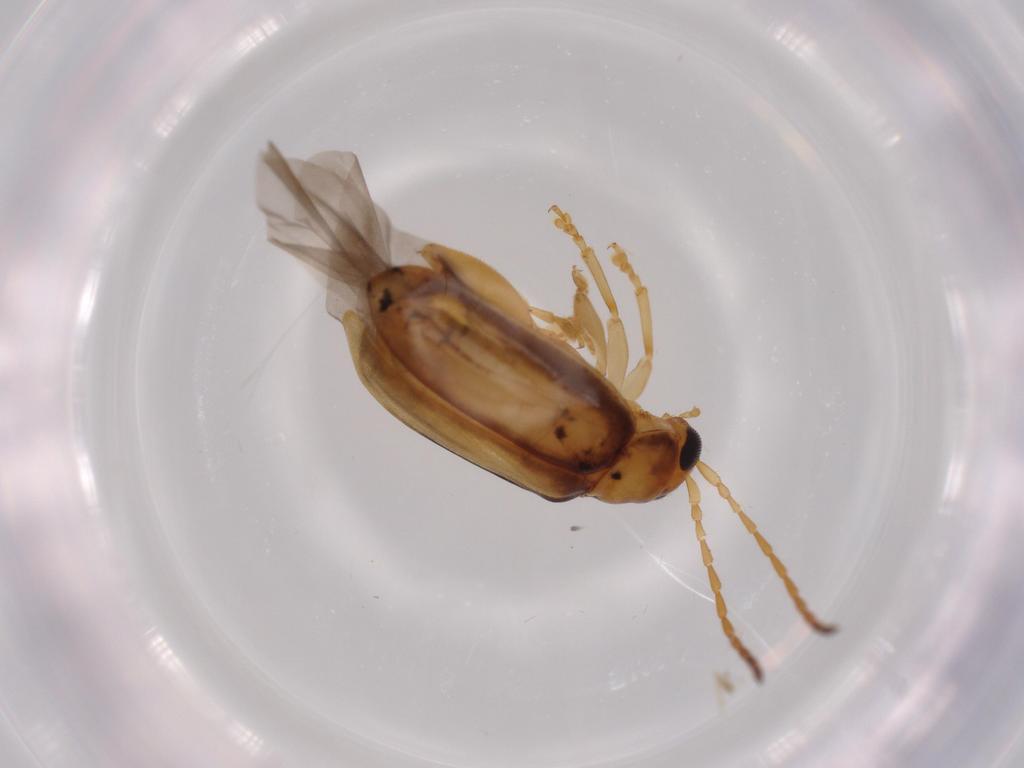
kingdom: Animalia
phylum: Arthropoda
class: Insecta
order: Coleoptera
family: Chrysomelidae
